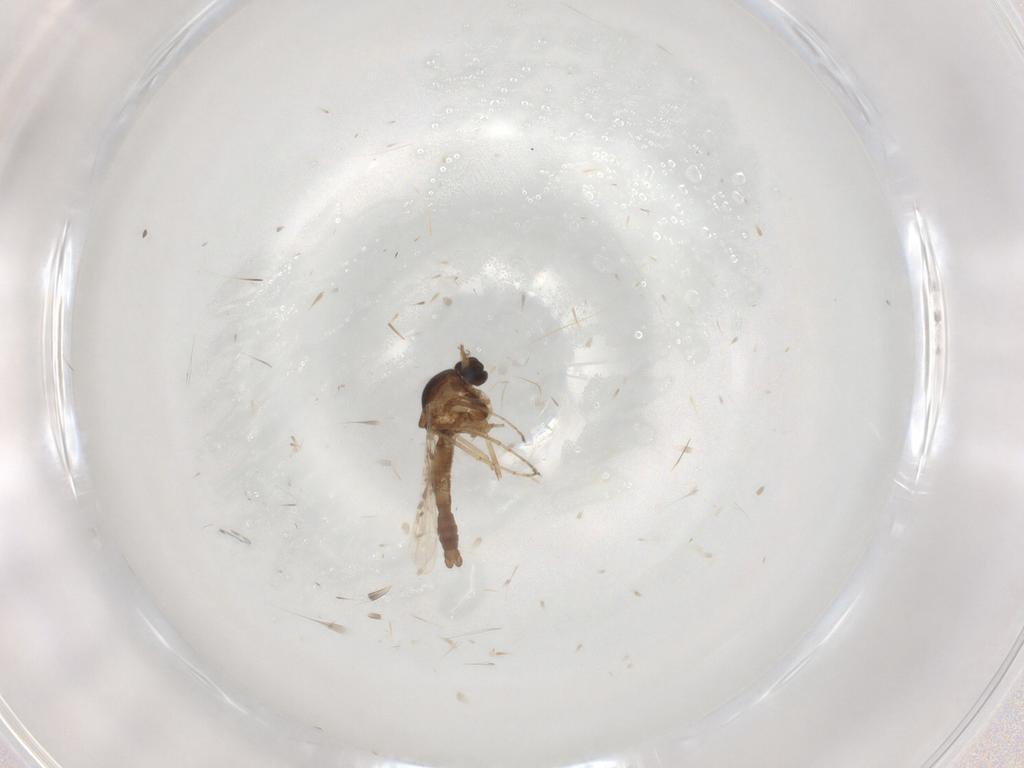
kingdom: Animalia
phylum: Arthropoda
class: Insecta
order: Diptera
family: Ceratopogonidae
